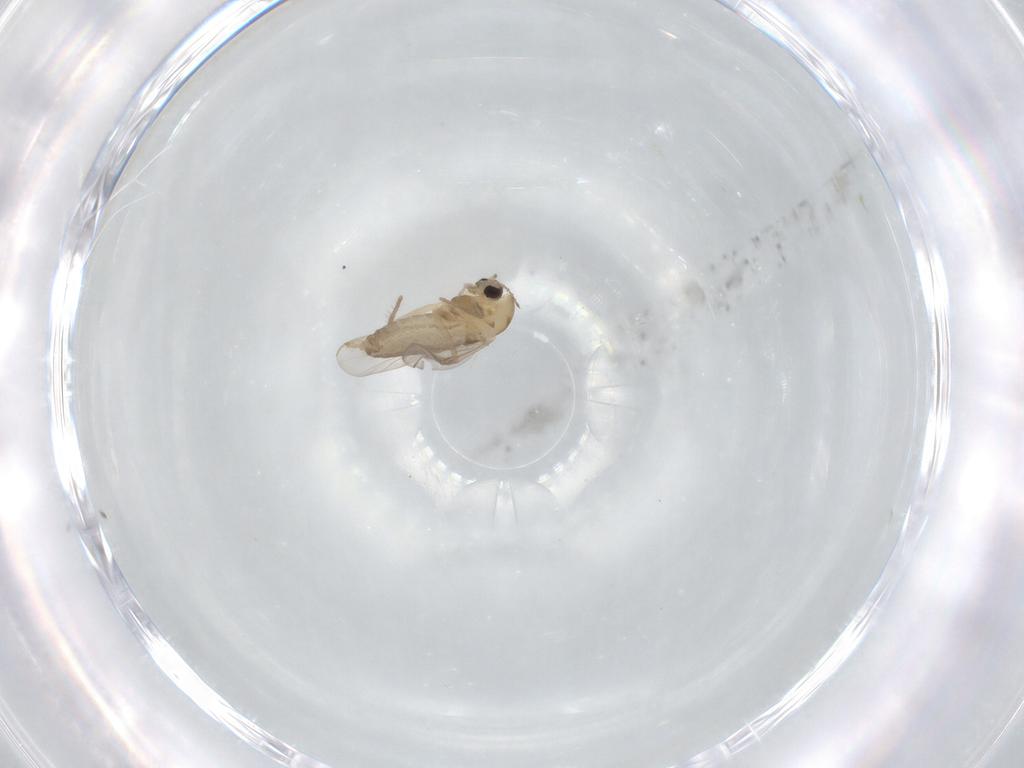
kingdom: Animalia
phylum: Arthropoda
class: Insecta
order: Diptera
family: Chironomidae
